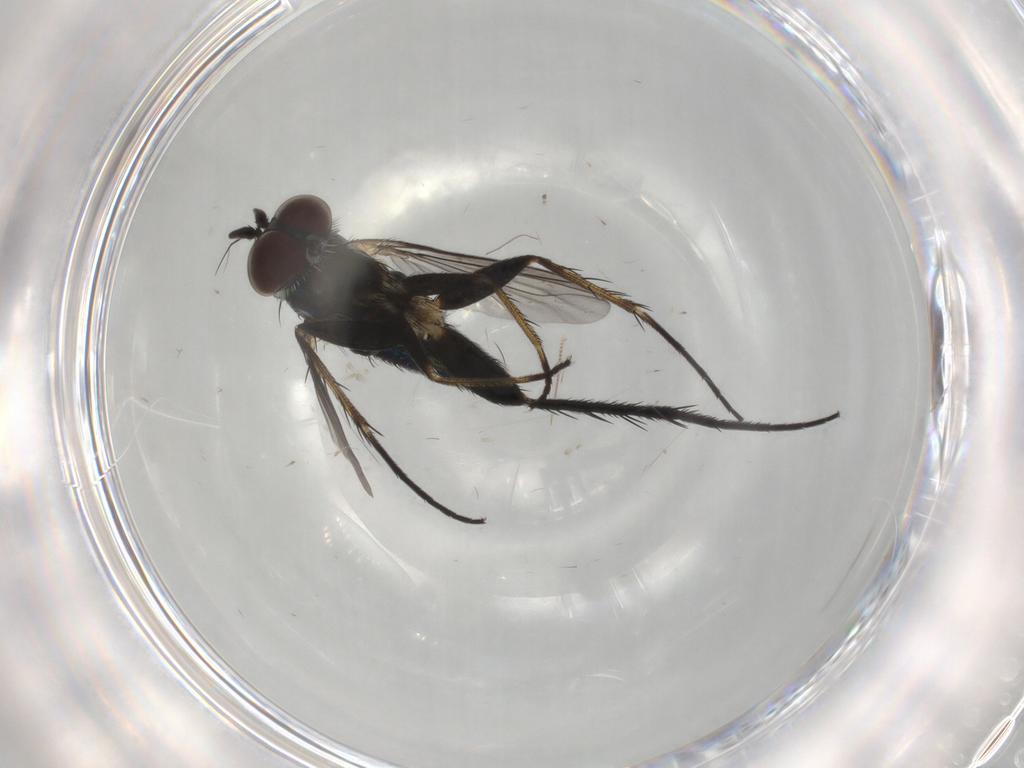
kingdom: Animalia
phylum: Arthropoda
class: Insecta
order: Diptera
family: Dolichopodidae
